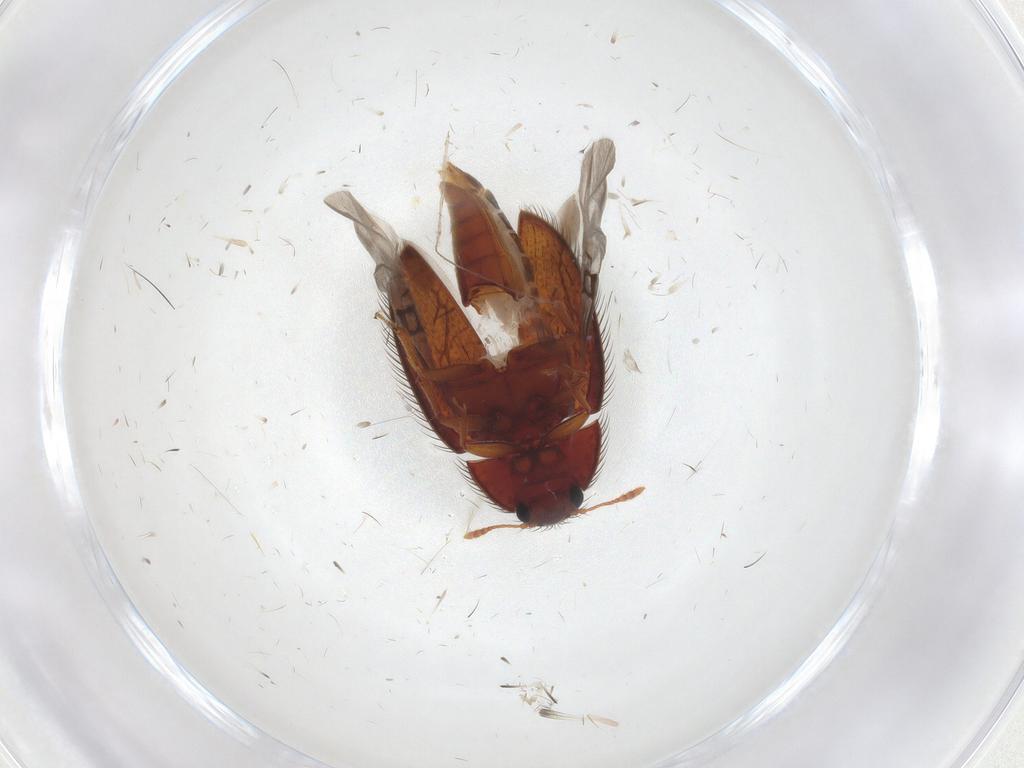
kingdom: Animalia
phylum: Arthropoda
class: Insecta
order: Coleoptera
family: Biphyllidae
